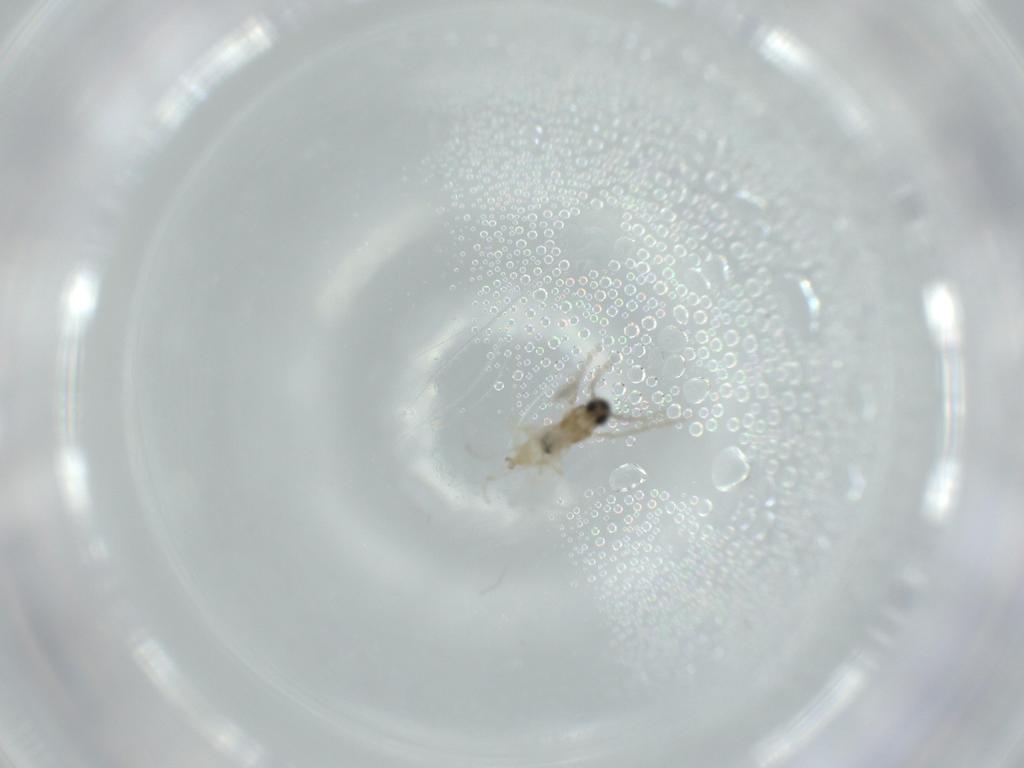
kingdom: Animalia
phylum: Arthropoda
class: Insecta
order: Diptera
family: Cecidomyiidae
